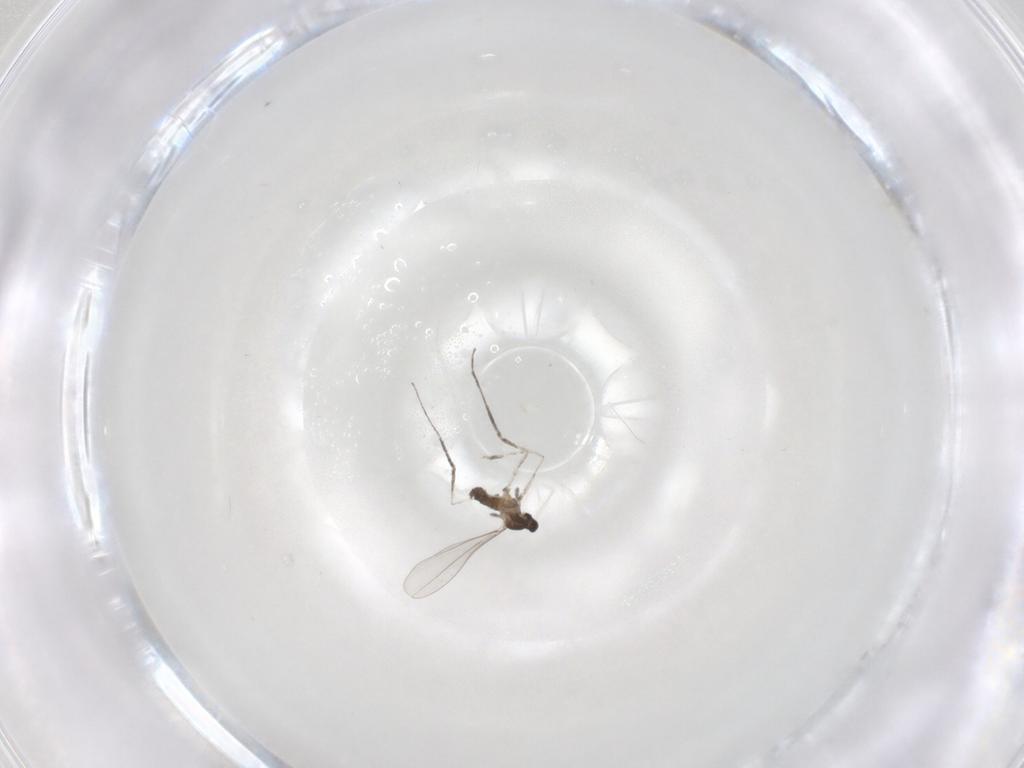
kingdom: Animalia
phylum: Arthropoda
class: Insecta
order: Diptera
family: Cecidomyiidae
